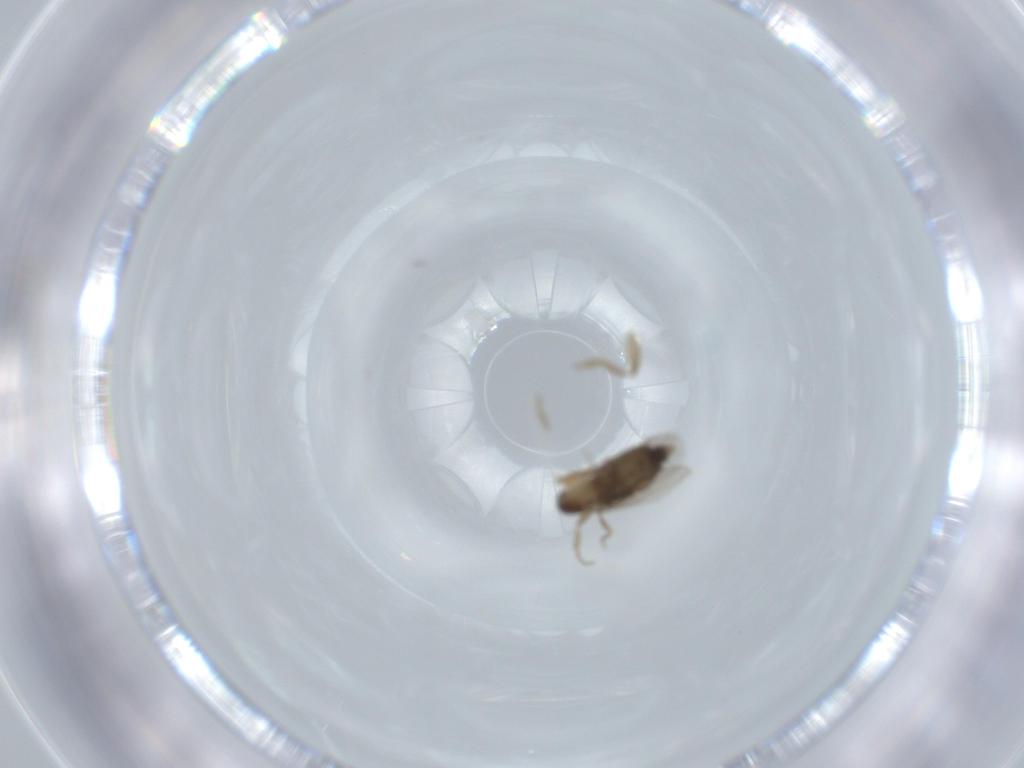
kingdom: Animalia
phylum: Arthropoda
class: Insecta
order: Diptera
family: Phoridae
